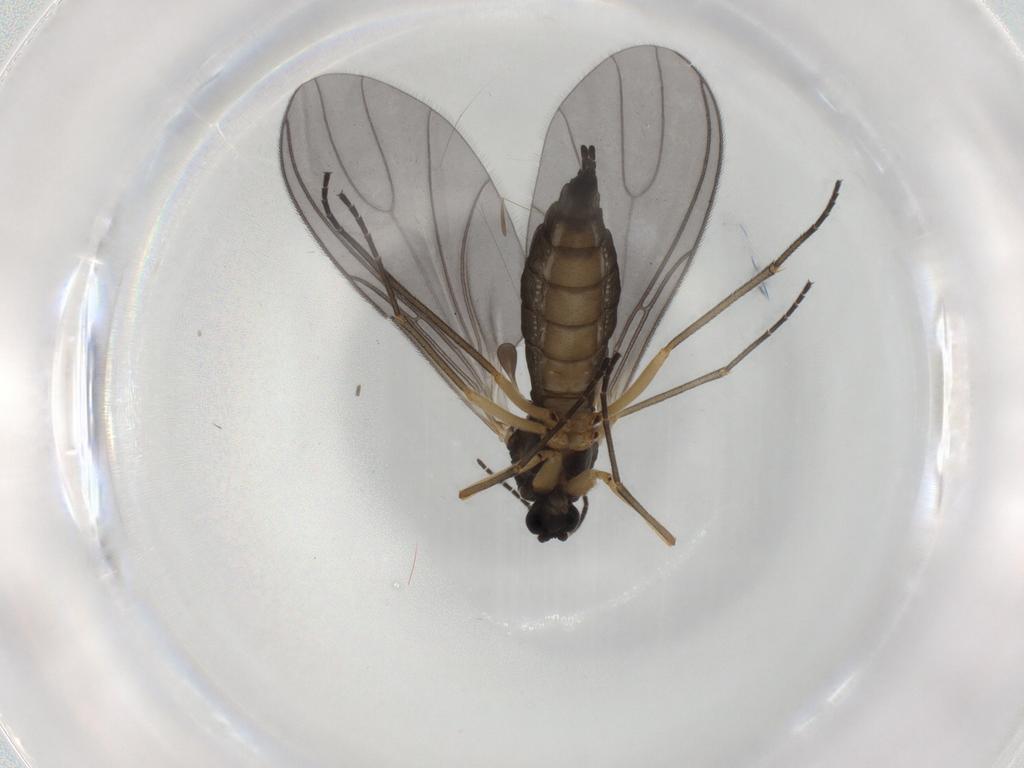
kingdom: Animalia
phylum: Arthropoda
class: Insecta
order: Diptera
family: Sciaridae
